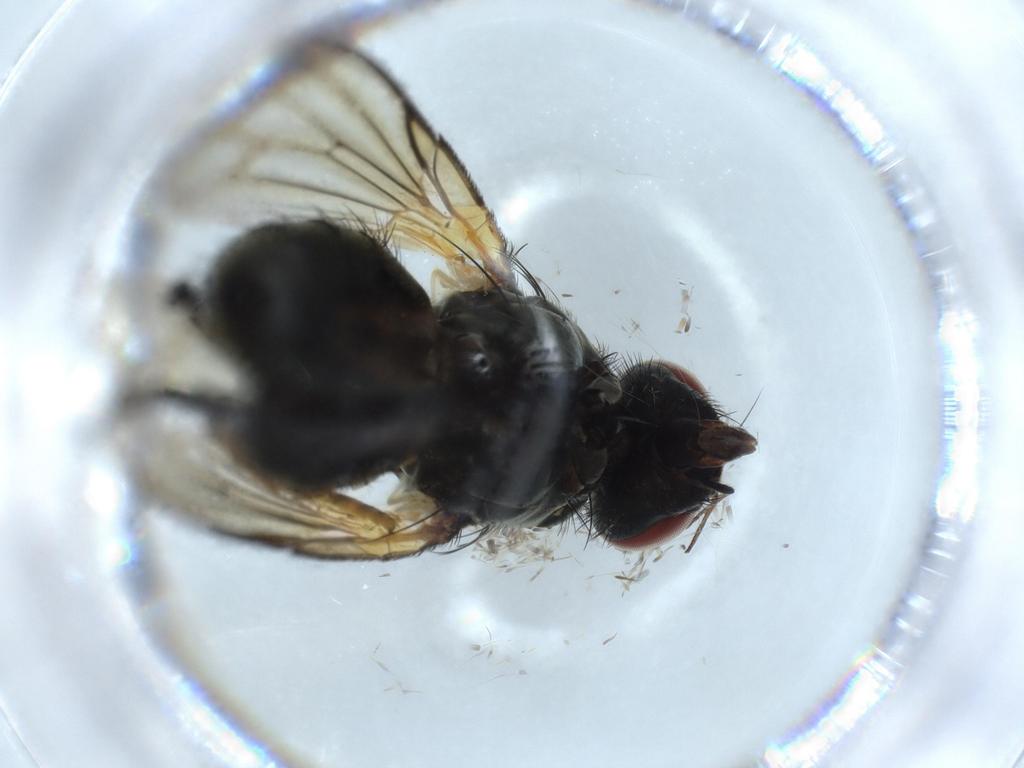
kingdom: Animalia
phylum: Arthropoda
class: Insecta
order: Diptera
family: Muscidae
